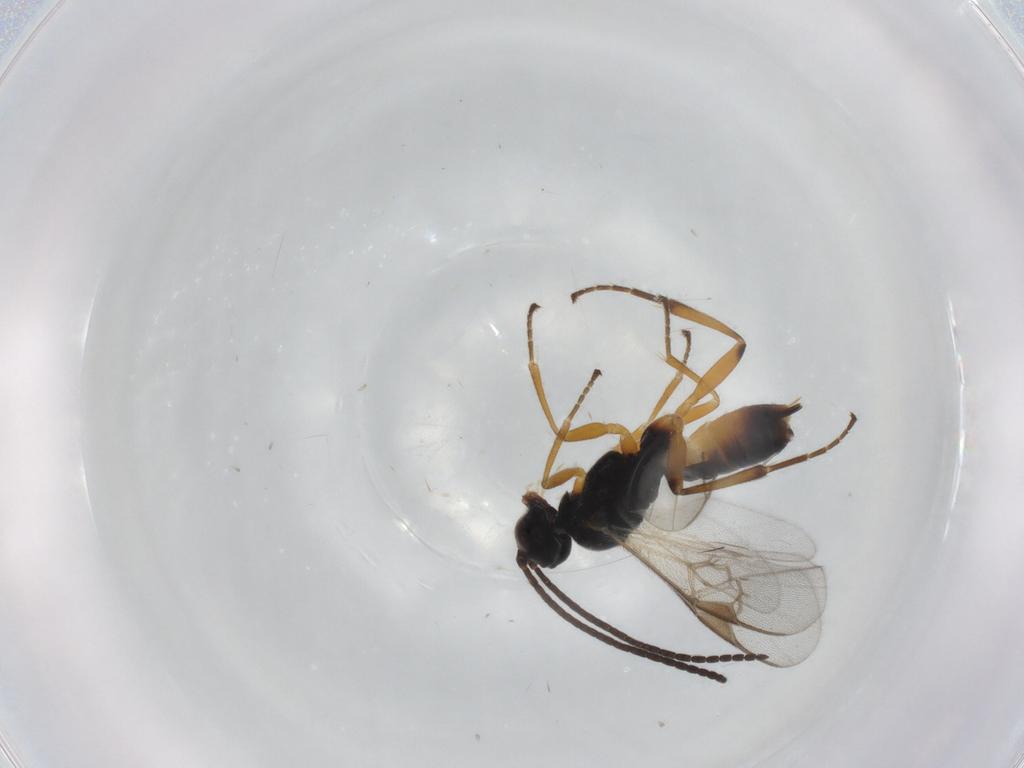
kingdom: Animalia
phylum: Arthropoda
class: Insecta
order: Hymenoptera
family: Braconidae
